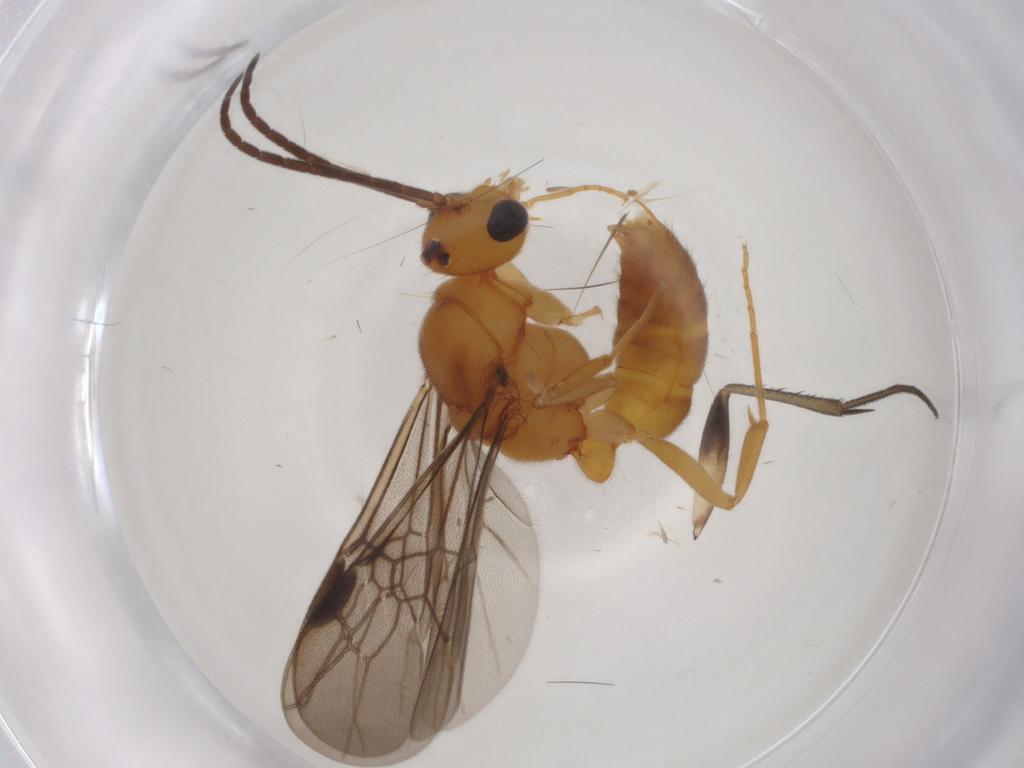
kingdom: Animalia
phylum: Arthropoda
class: Insecta
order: Hymenoptera
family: Formicidae
